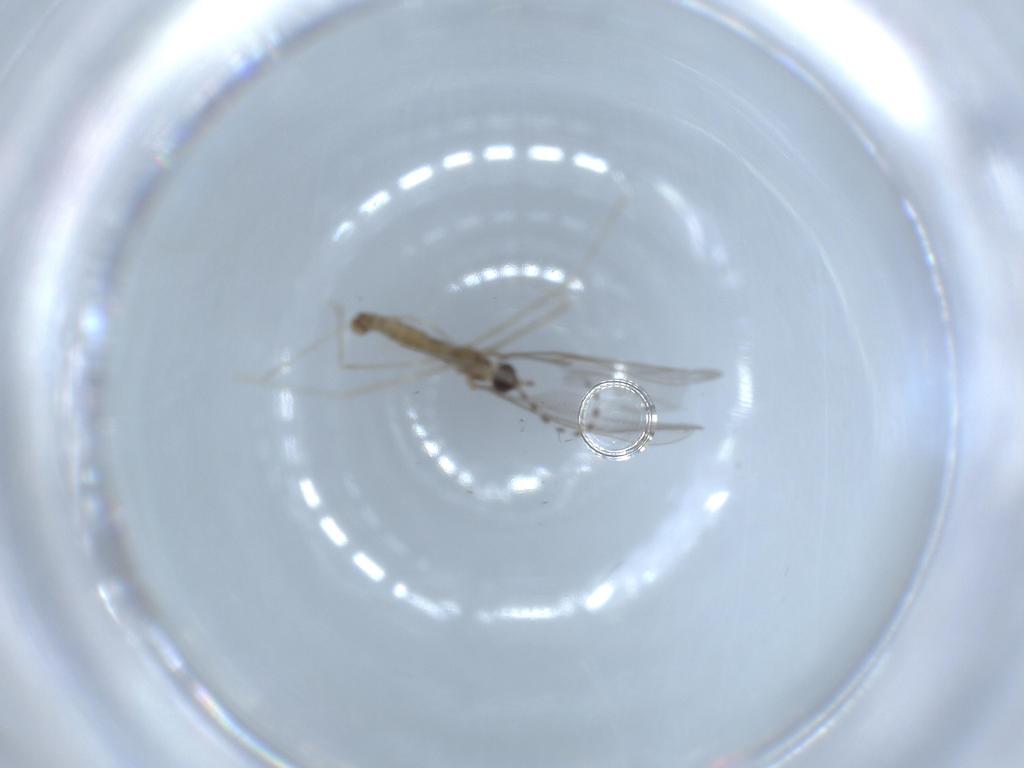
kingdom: Animalia
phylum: Arthropoda
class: Insecta
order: Diptera
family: Cecidomyiidae
